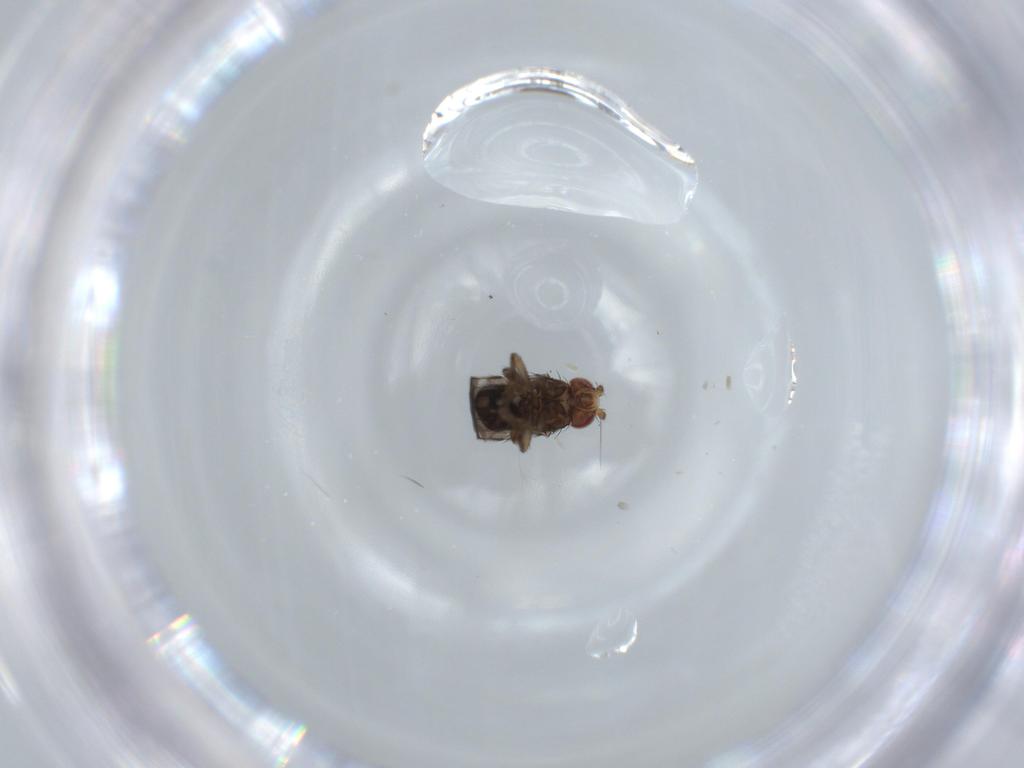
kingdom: Animalia
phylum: Arthropoda
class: Insecta
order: Diptera
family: Sphaeroceridae
